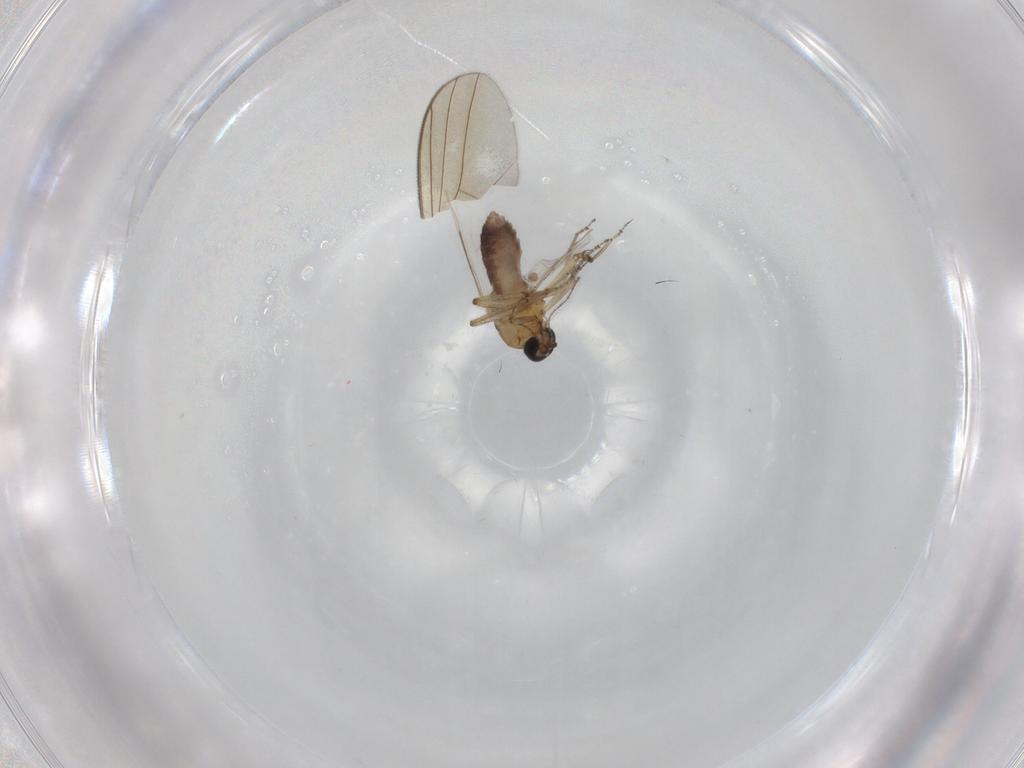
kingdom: Animalia
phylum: Arthropoda
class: Insecta
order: Diptera
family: Ceratopogonidae
